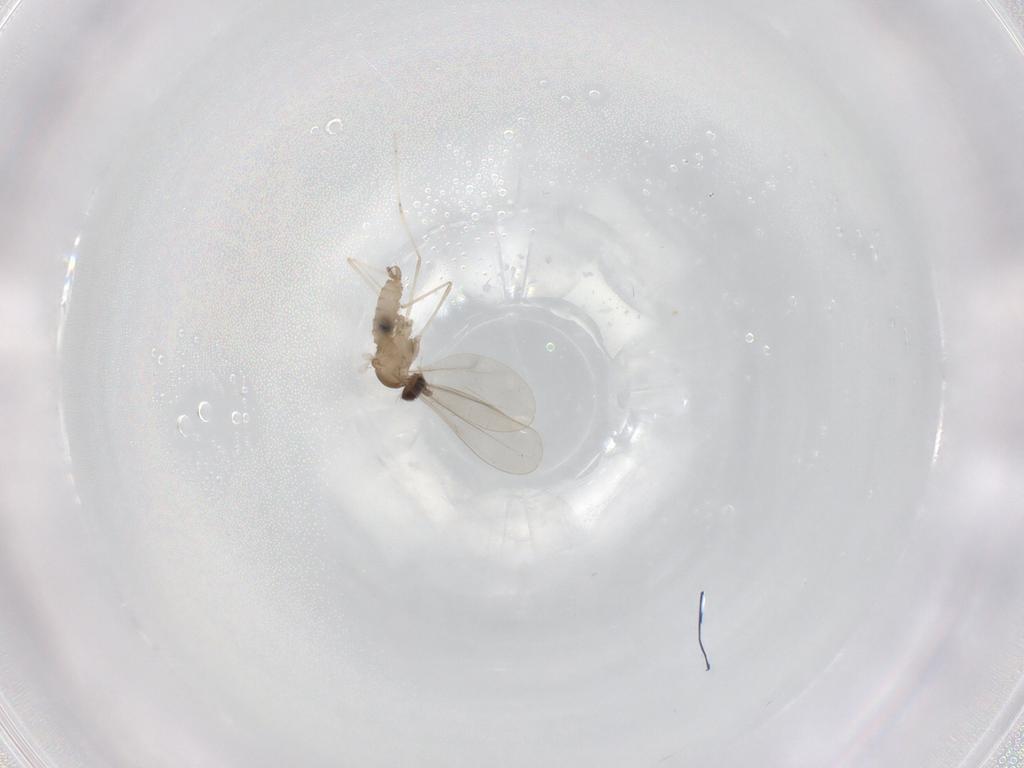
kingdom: Animalia
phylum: Arthropoda
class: Insecta
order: Diptera
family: Cecidomyiidae
